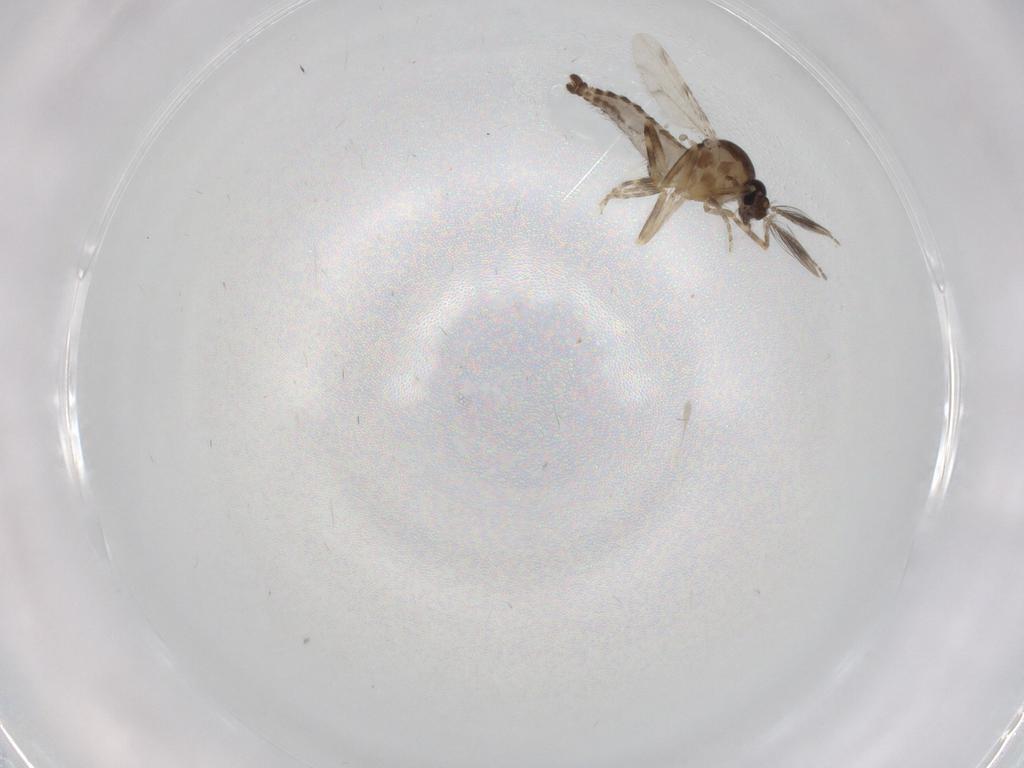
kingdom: Animalia
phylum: Arthropoda
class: Insecta
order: Diptera
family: Ceratopogonidae
